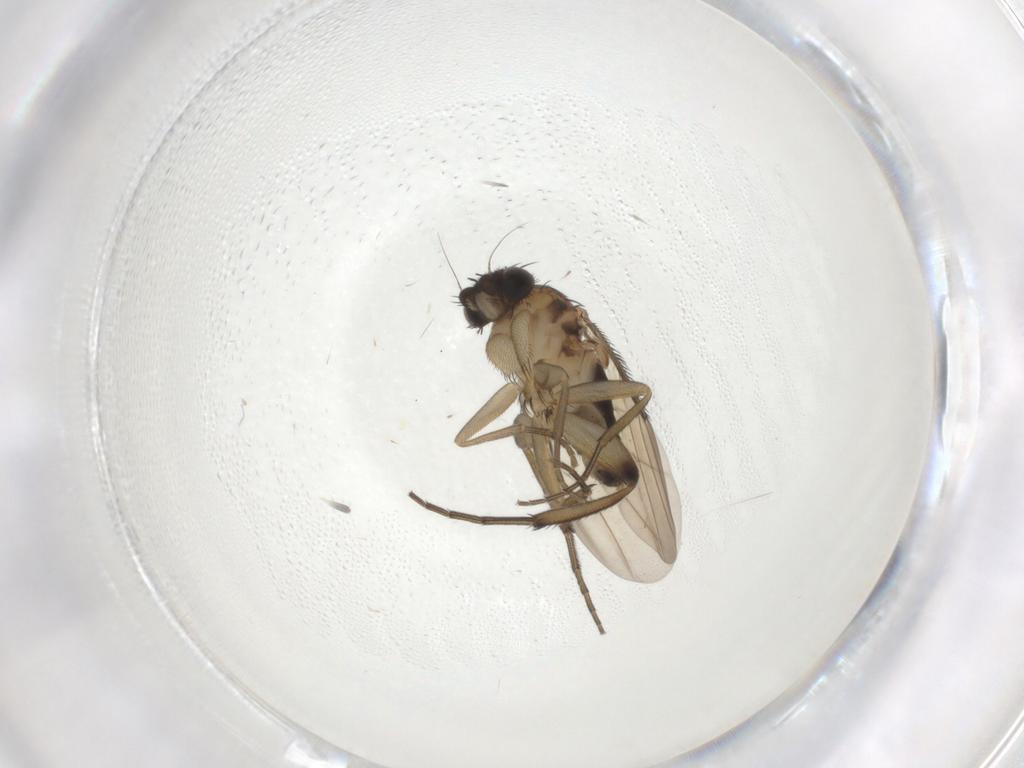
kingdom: Animalia
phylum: Arthropoda
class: Insecta
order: Diptera
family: Phoridae
